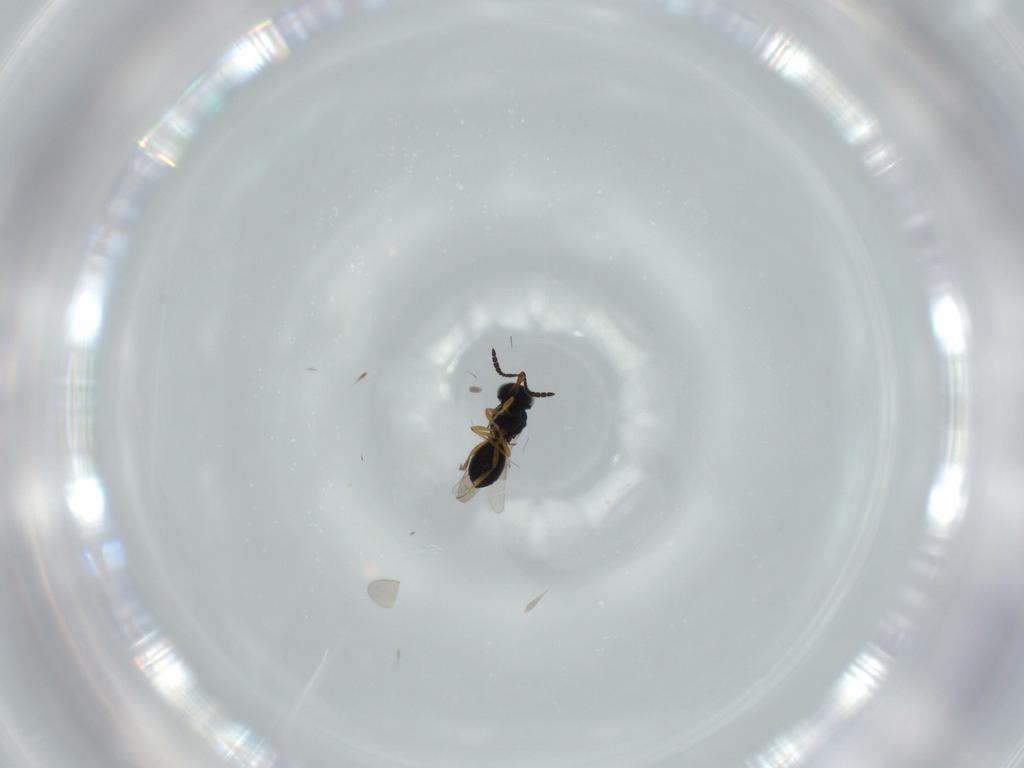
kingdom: Animalia
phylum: Arthropoda
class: Insecta
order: Hymenoptera
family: Scelionidae
